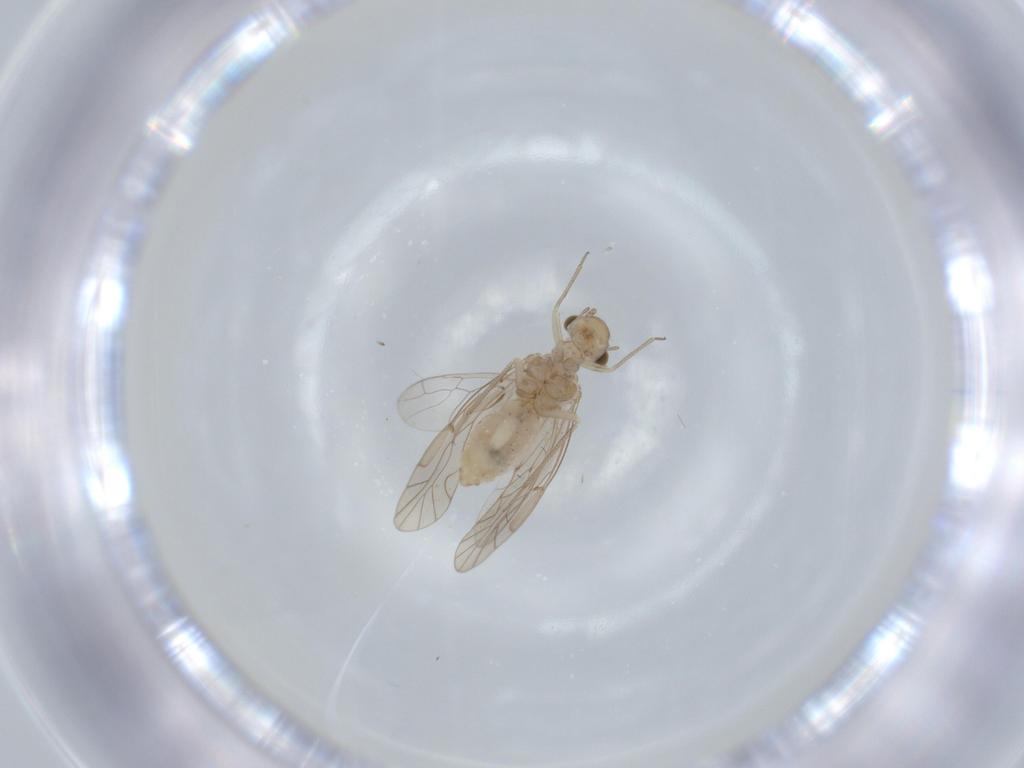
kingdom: Animalia
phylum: Arthropoda
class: Insecta
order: Psocodea
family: Lachesillidae
